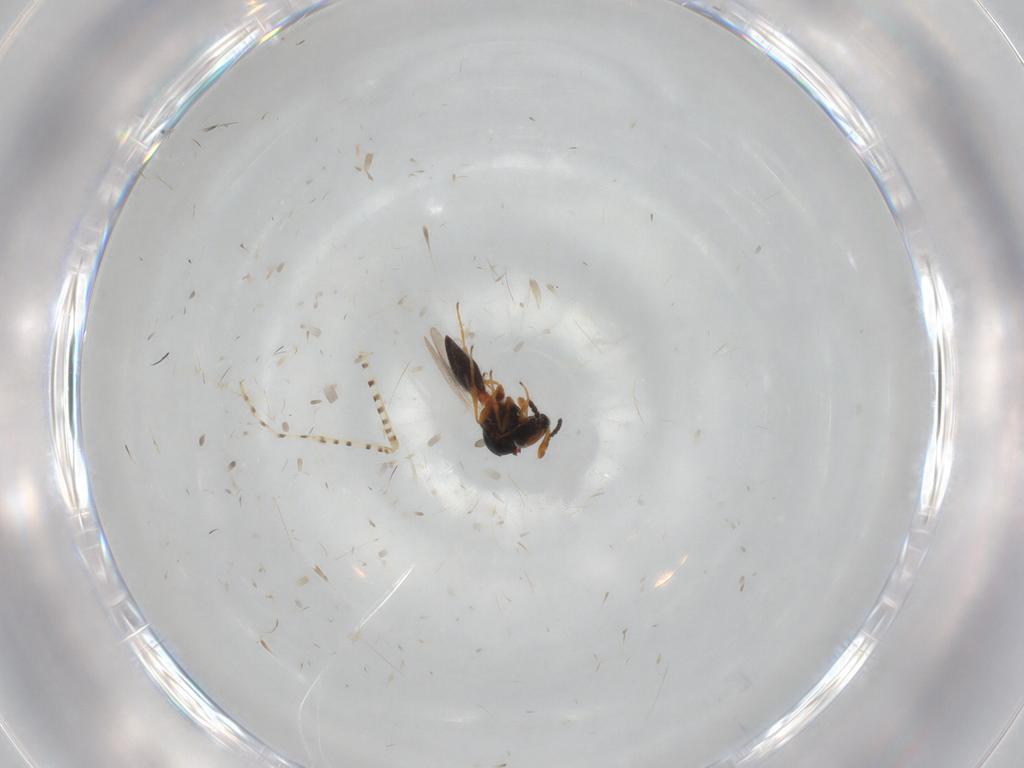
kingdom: Animalia
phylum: Arthropoda
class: Insecta
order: Hymenoptera
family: Platygastridae
